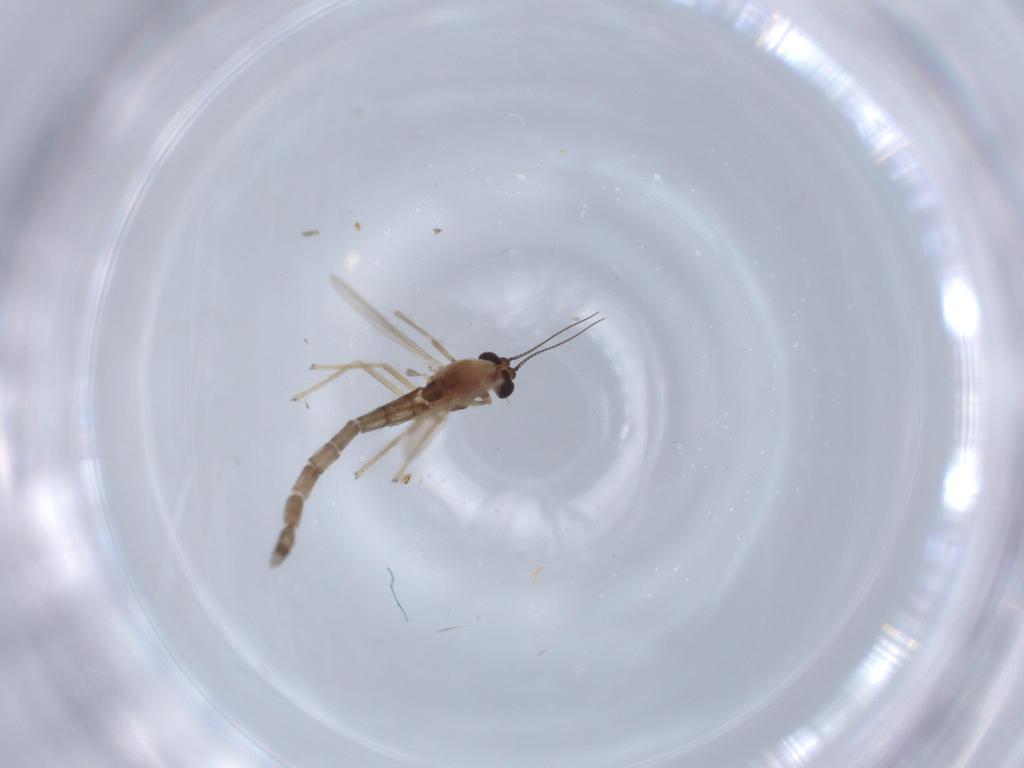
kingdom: Animalia
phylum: Arthropoda
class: Insecta
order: Diptera
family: Chironomidae
